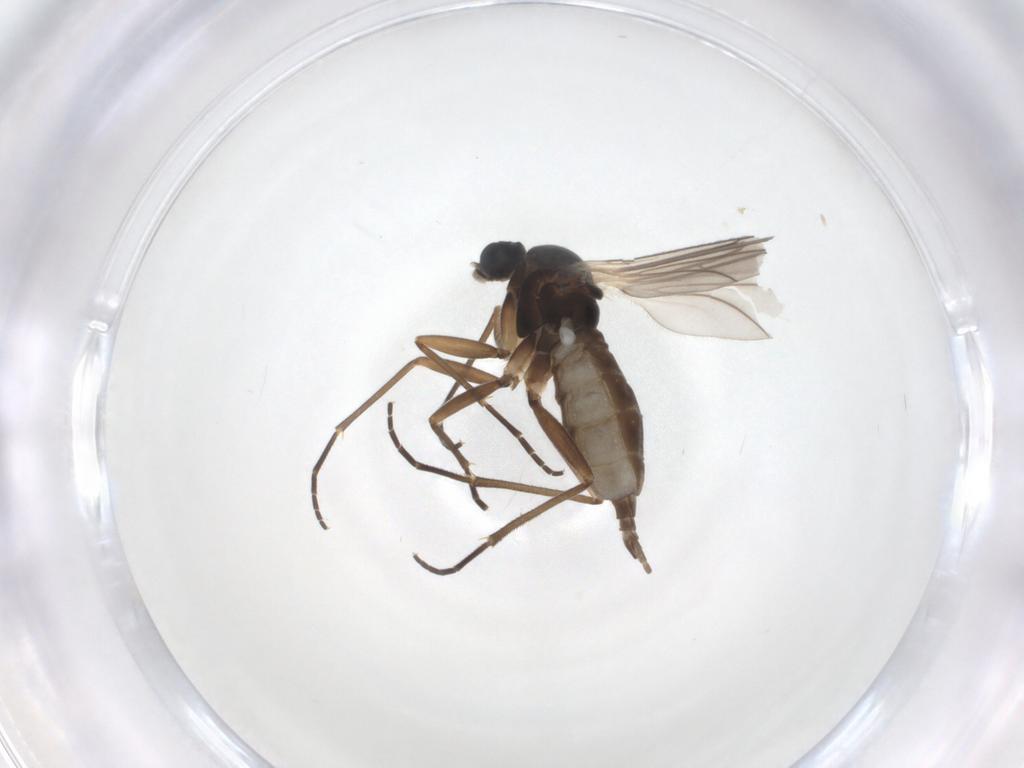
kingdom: Animalia
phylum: Arthropoda
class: Insecta
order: Diptera
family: Sciaridae
